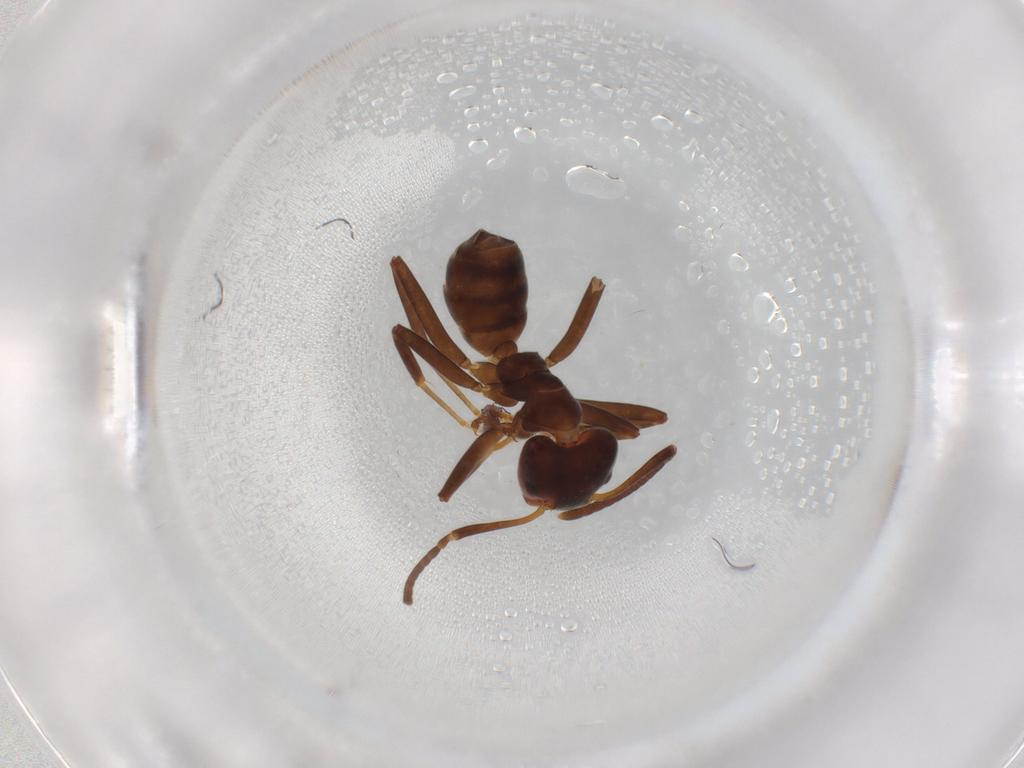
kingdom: Animalia
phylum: Arthropoda
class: Insecta
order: Hymenoptera
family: Formicidae
